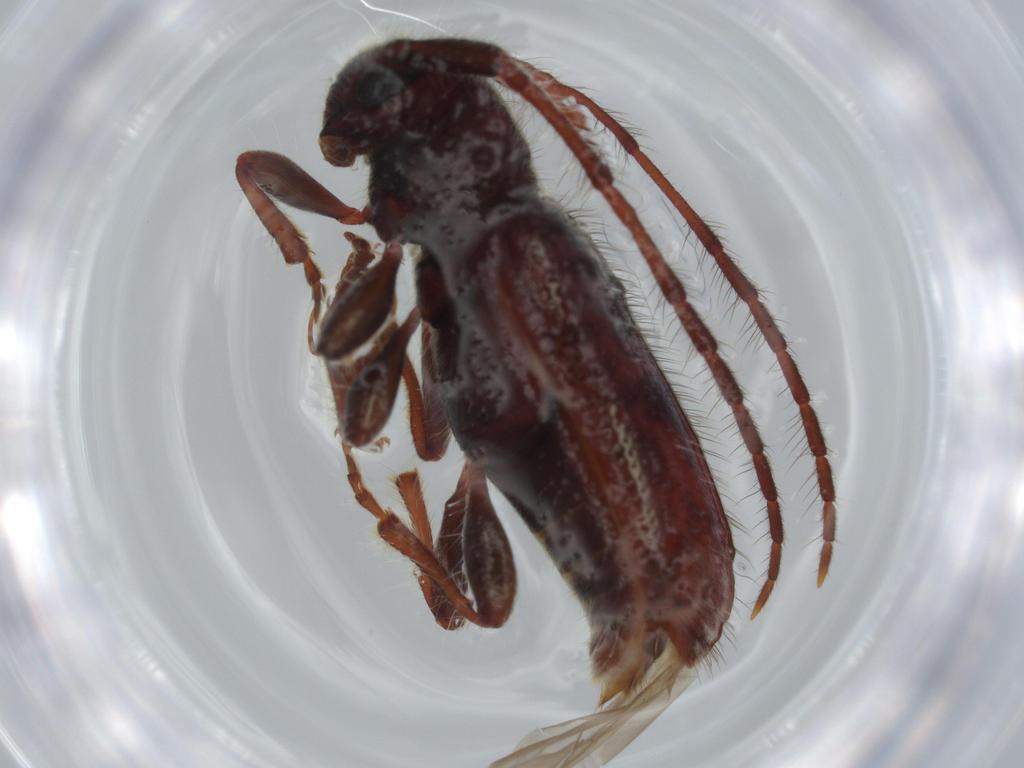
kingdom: Animalia
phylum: Arthropoda
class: Insecta
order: Coleoptera
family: Cerambycidae
